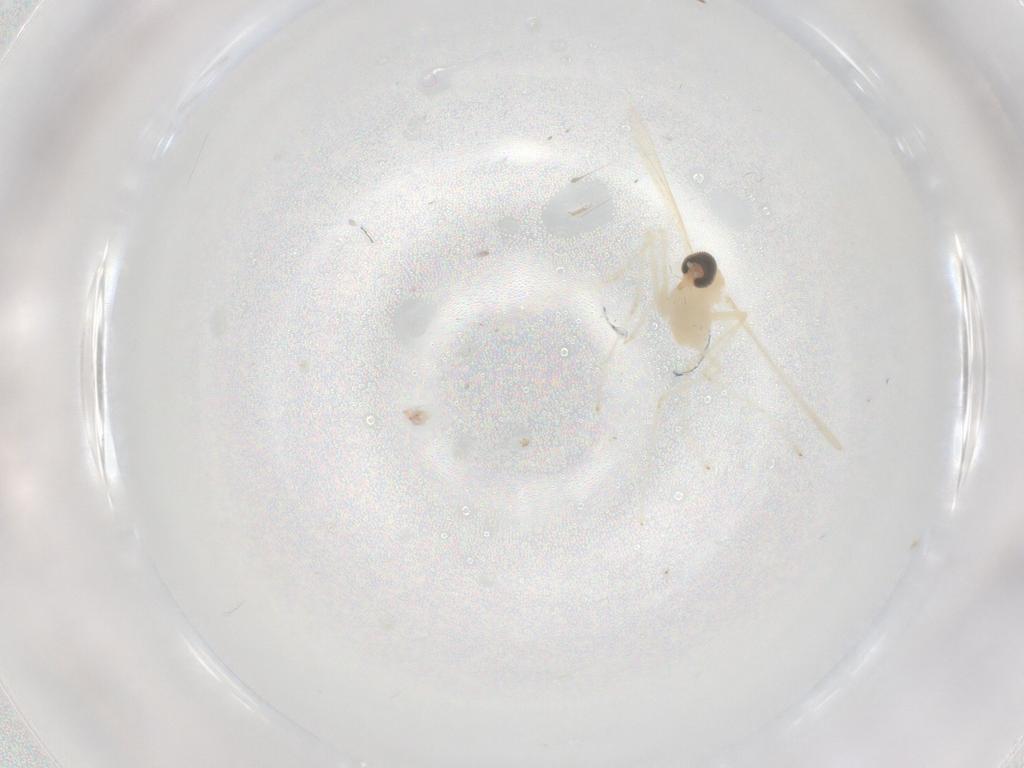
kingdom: Animalia
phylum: Arthropoda
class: Insecta
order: Diptera
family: Cecidomyiidae
